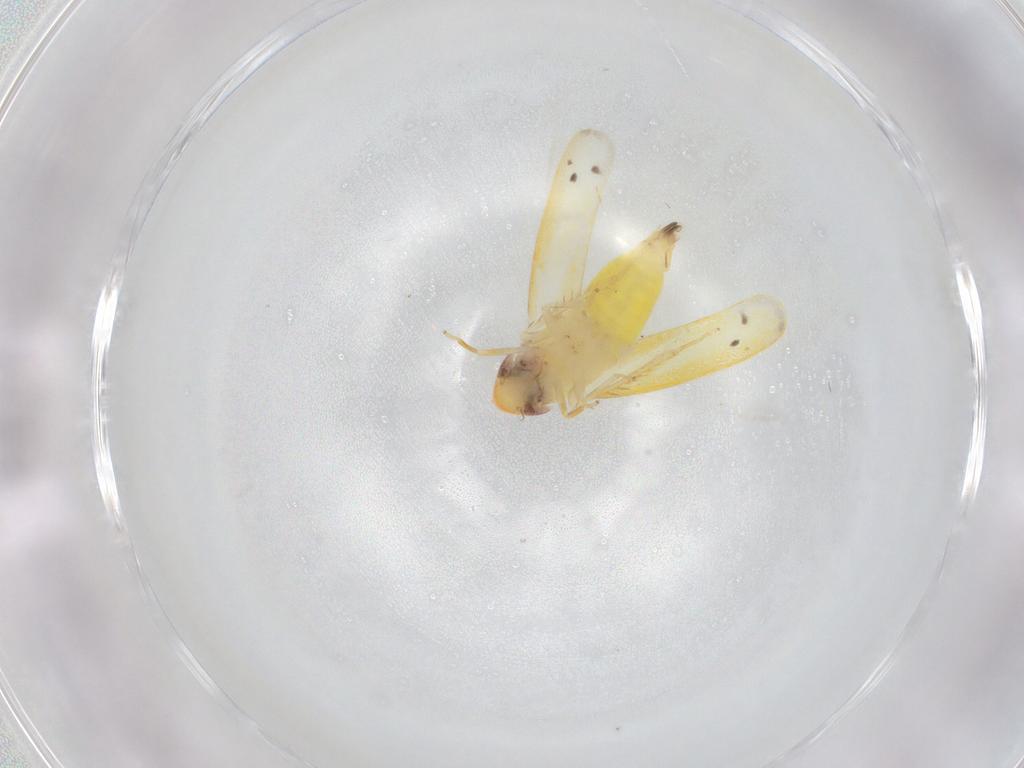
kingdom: Animalia
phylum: Arthropoda
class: Insecta
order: Hemiptera
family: Cicadellidae
